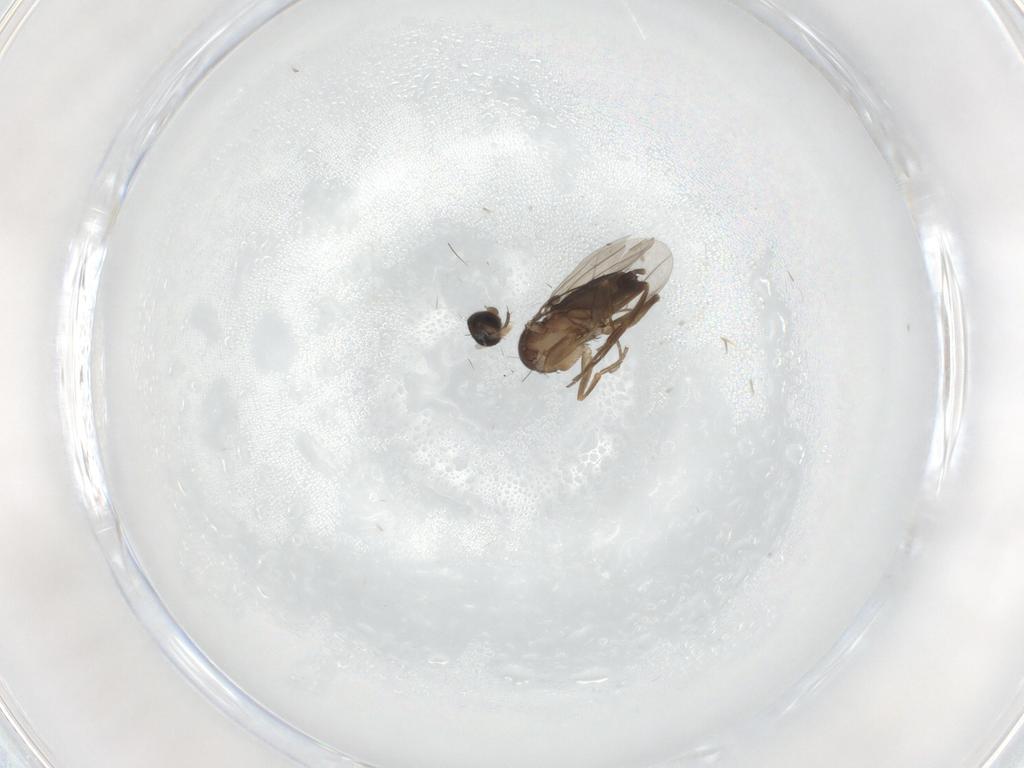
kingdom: Animalia
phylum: Arthropoda
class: Insecta
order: Diptera
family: Phoridae
